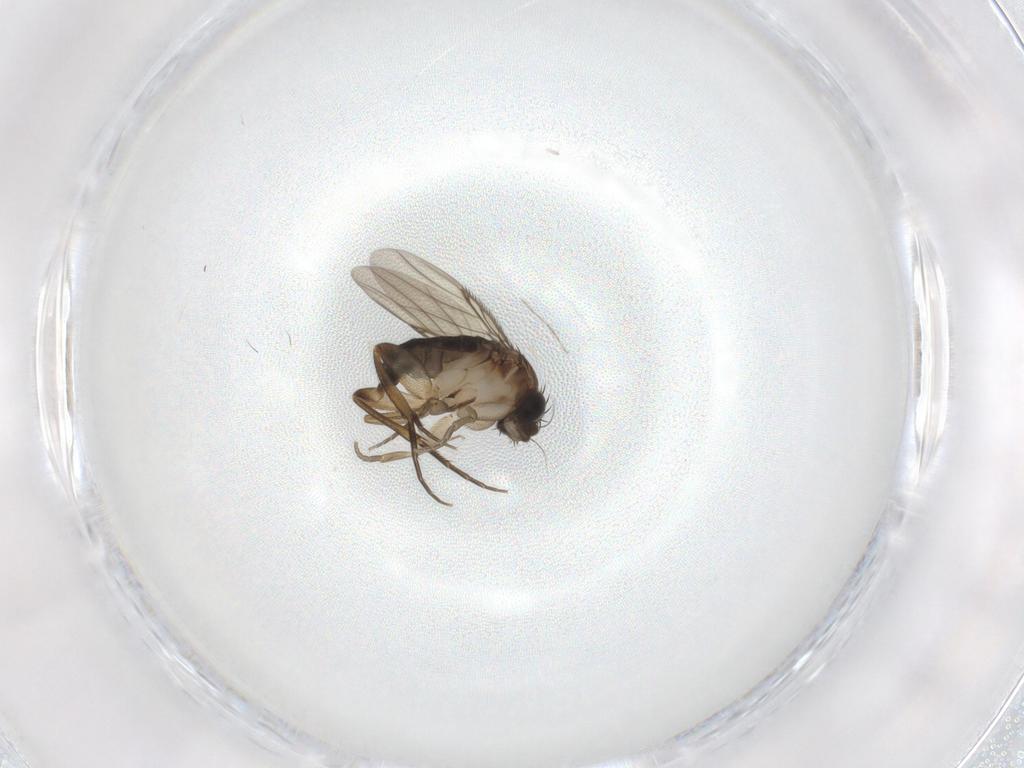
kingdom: Animalia
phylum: Arthropoda
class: Insecta
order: Diptera
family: Phoridae
